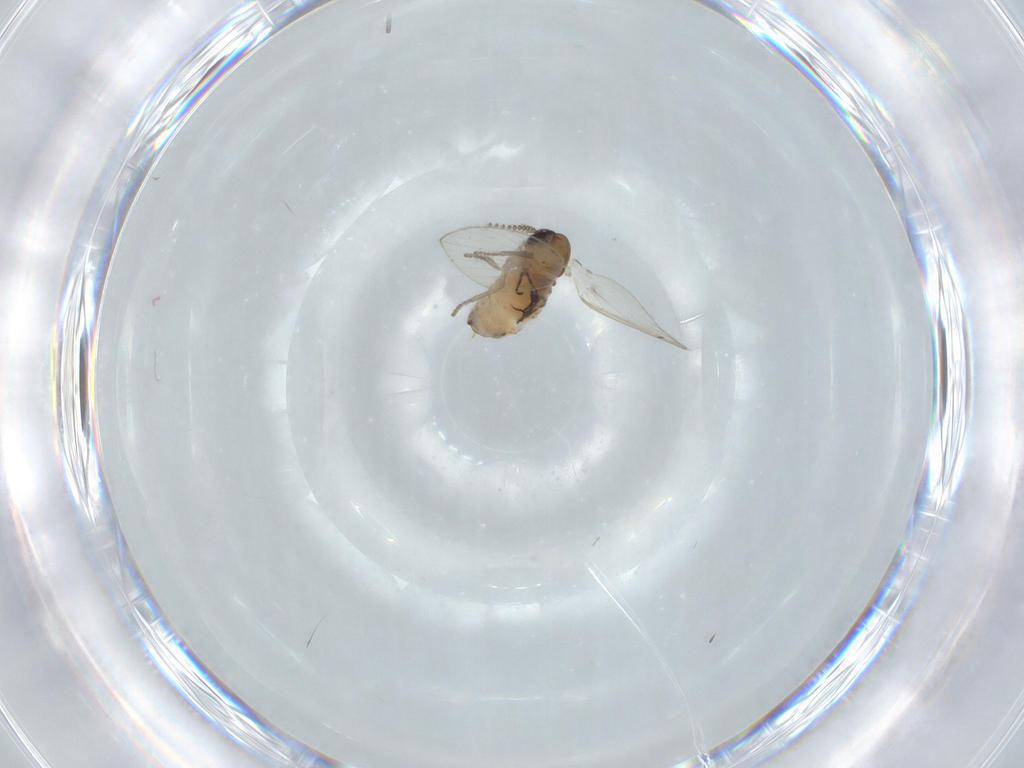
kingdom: Animalia
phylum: Arthropoda
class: Insecta
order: Diptera
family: Psychodidae
